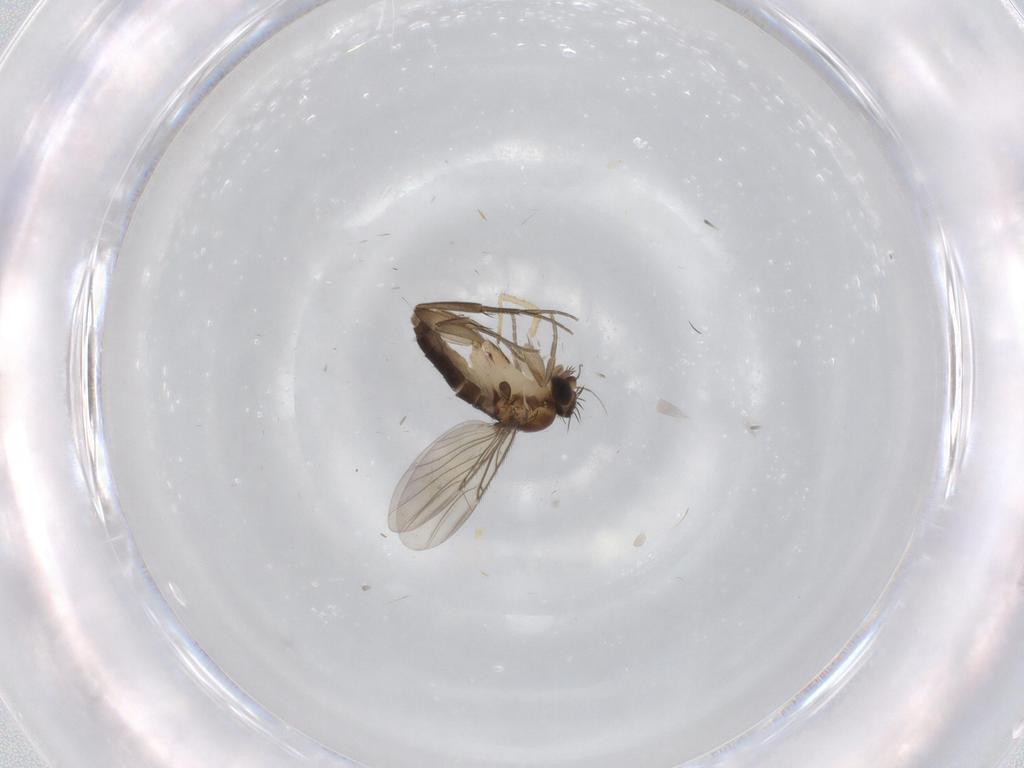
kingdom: Animalia
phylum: Arthropoda
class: Insecta
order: Diptera
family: Phoridae
